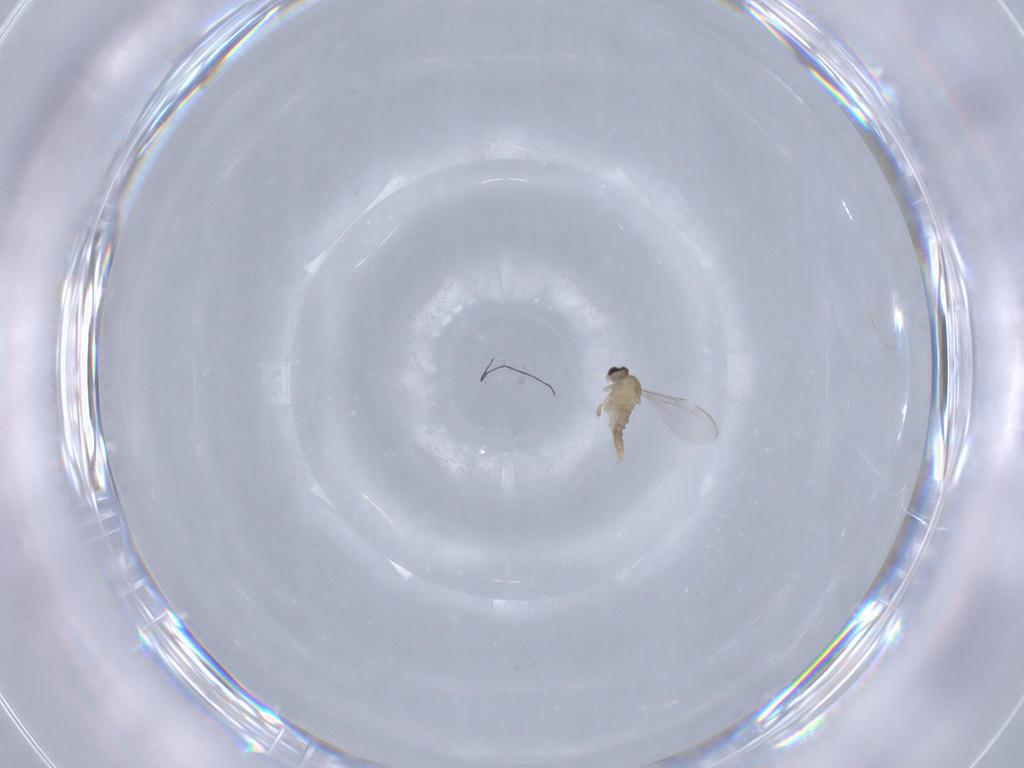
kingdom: Animalia
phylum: Arthropoda
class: Insecta
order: Diptera
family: Cecidomyiidae
